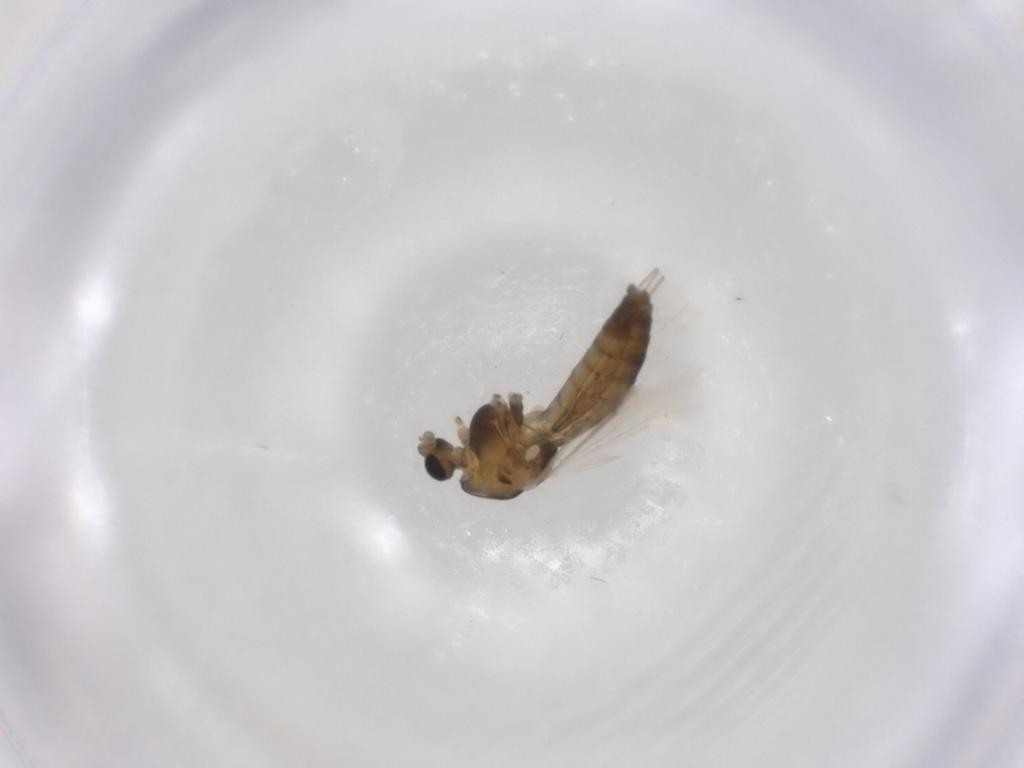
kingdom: Animalia
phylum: Arthropoda
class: Insecta
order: Diptera
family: Chironomidae
